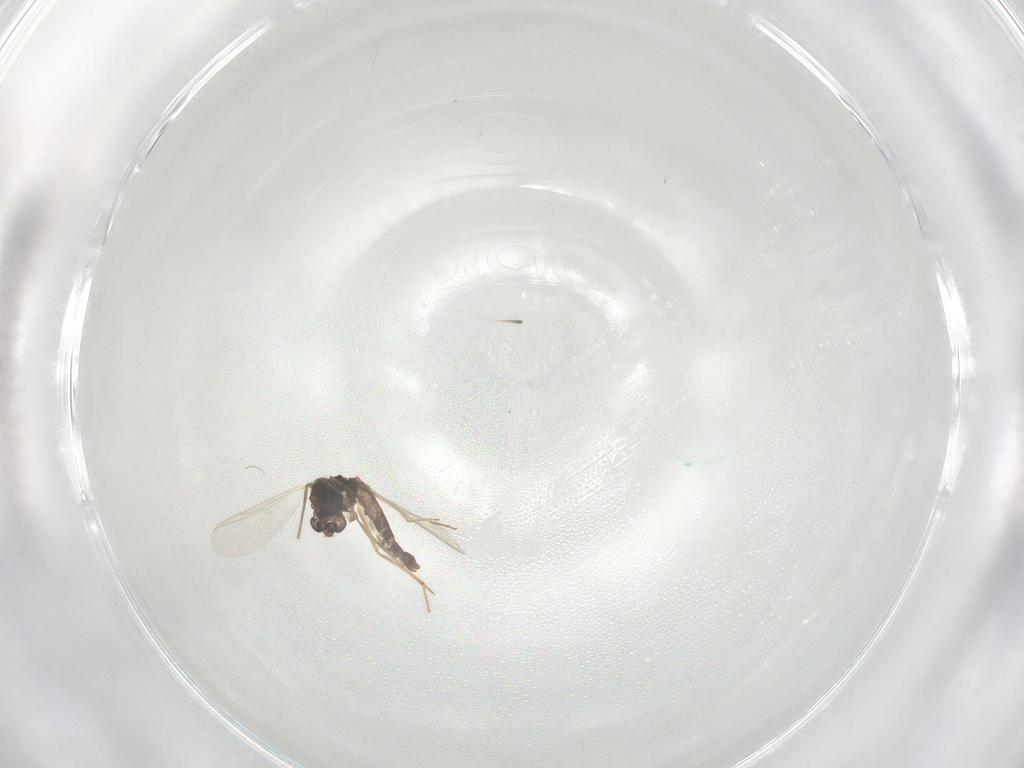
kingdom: Animalia
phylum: Arthropoda
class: Insecta
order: Diptera
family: Chironomidae
